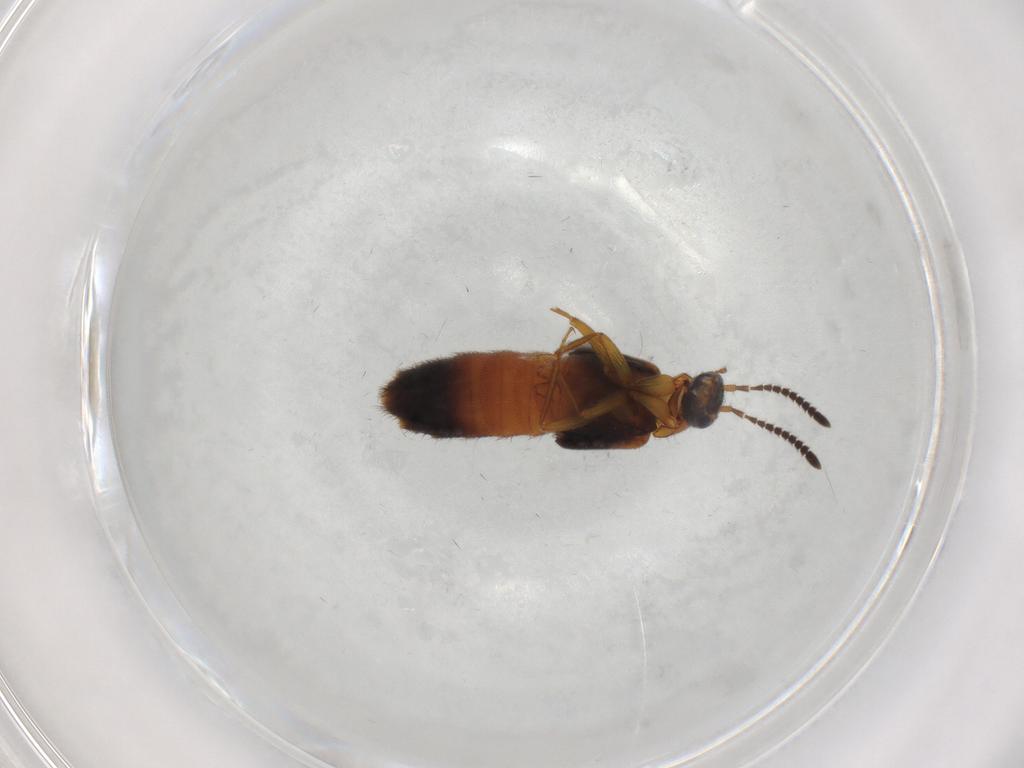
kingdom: Animalia
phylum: Arthropoda
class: Insecta
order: Coleoptera
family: Staphylinidae
